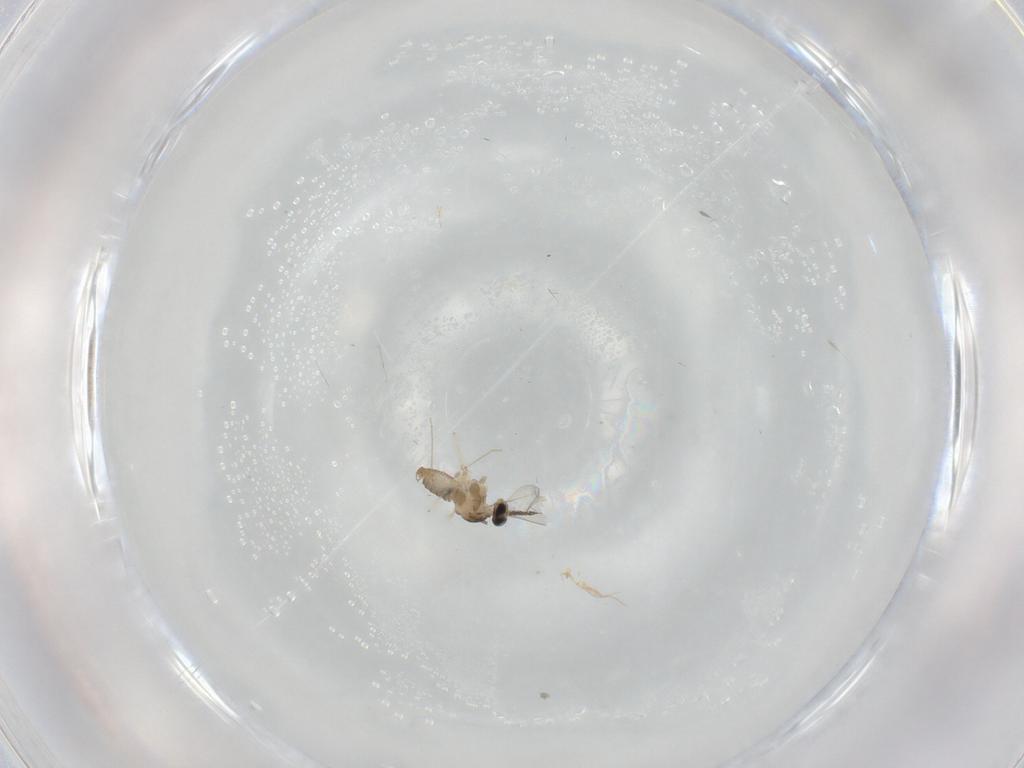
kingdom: Animalia
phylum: Arthropoda
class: Insecta
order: Diptera
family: Cecidomyiidae
